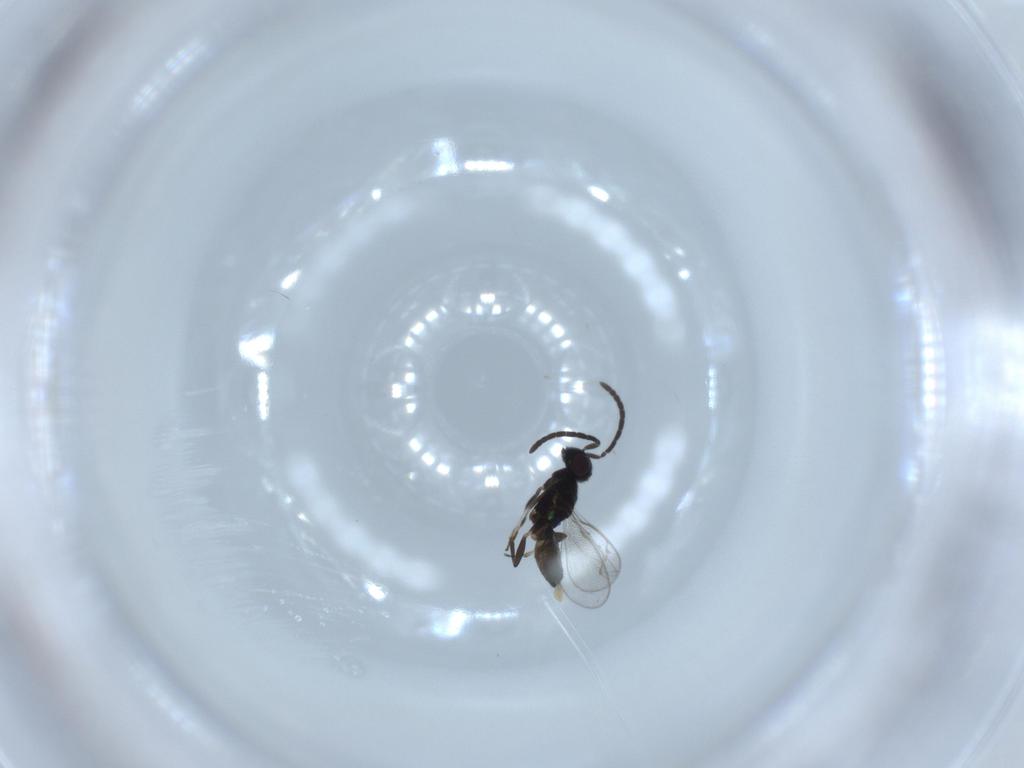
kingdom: Animalia
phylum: Arthropoda
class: Insecta
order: Hymenoptera
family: Eupelmidae
